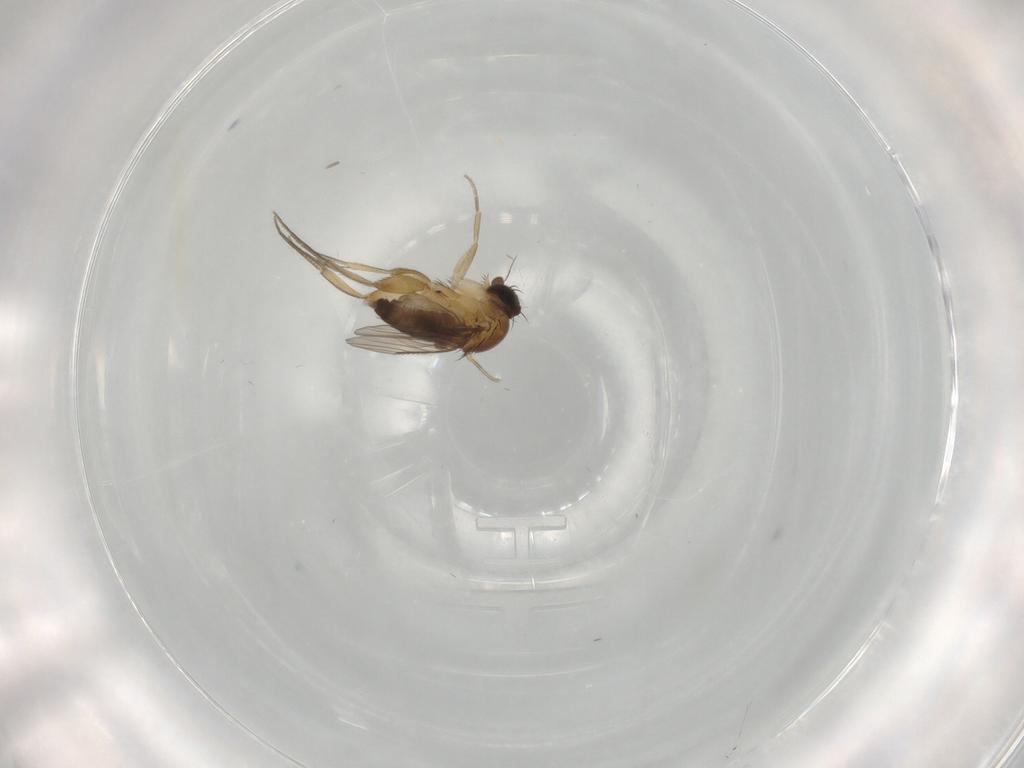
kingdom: Animalia
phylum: Arthropoda
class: Insecta
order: Diptera
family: Phoridae
